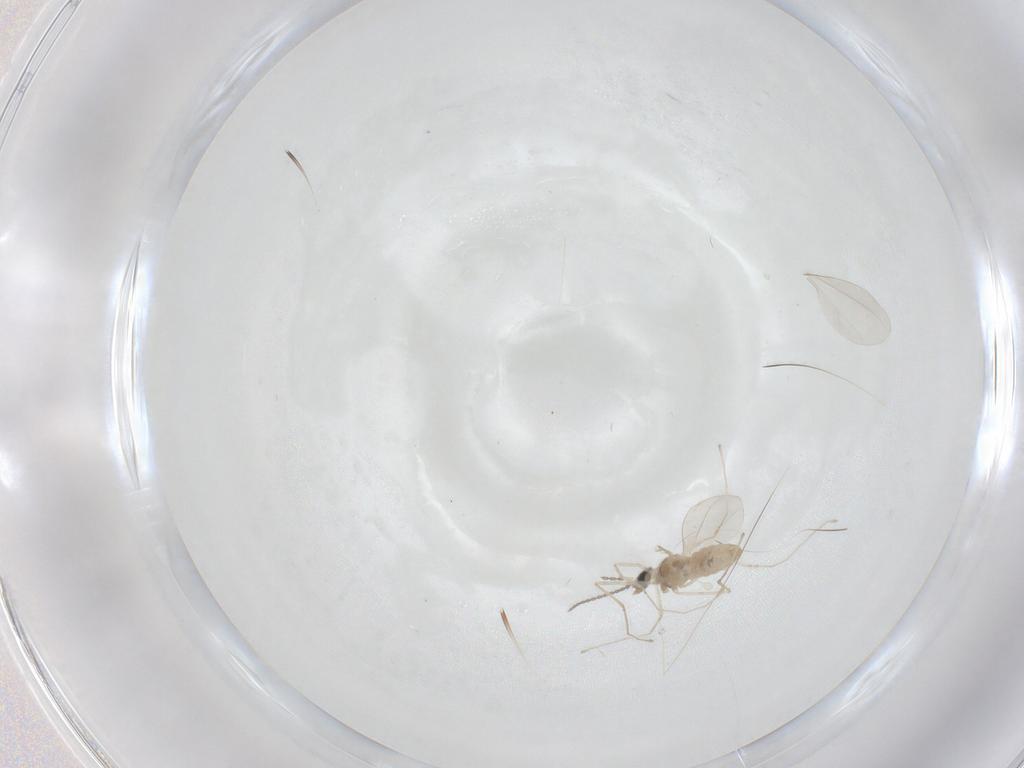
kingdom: Animalia
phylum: Arthropoda
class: Insecta
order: Diptera
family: Cecidomyiidae
